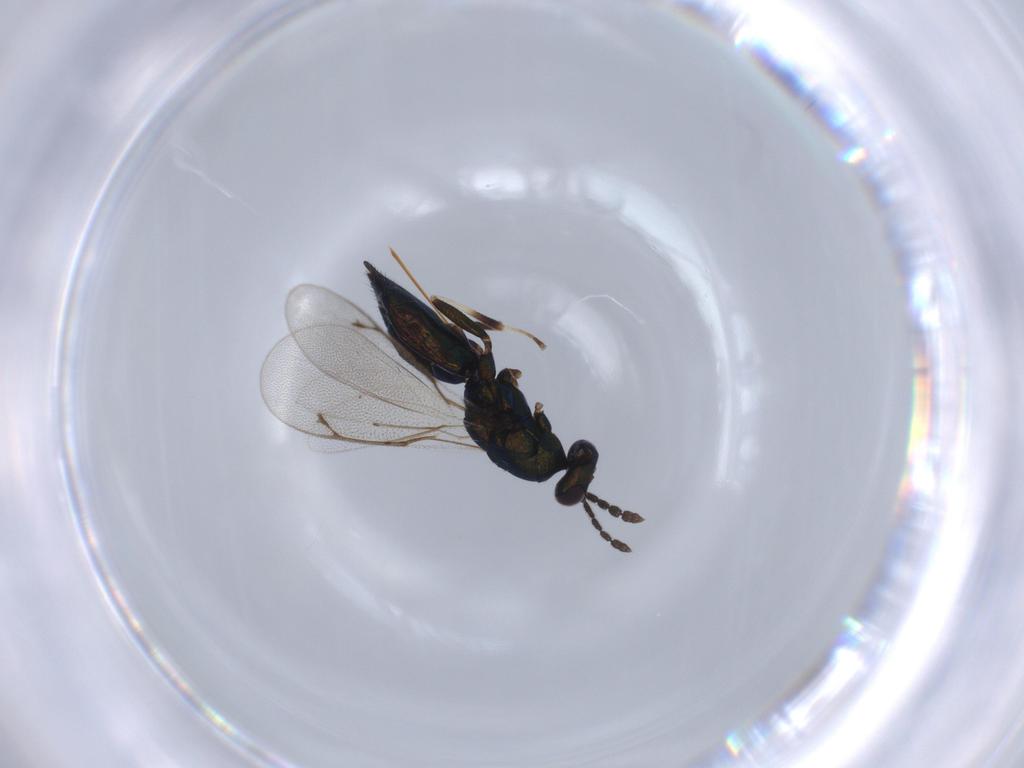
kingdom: Animalia
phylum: Arthropoda
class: Insecta
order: Hymenoptera
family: Eulophidae
